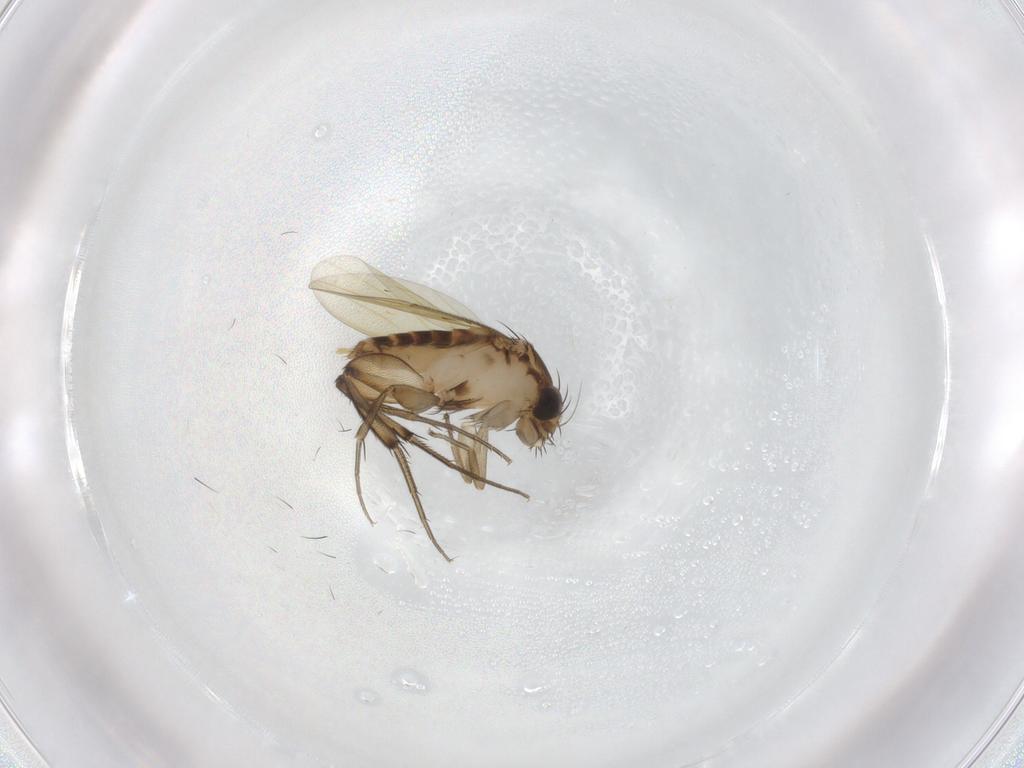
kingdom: Animalia
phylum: Arthropoda
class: Insecta
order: Diptera
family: Phoridae
